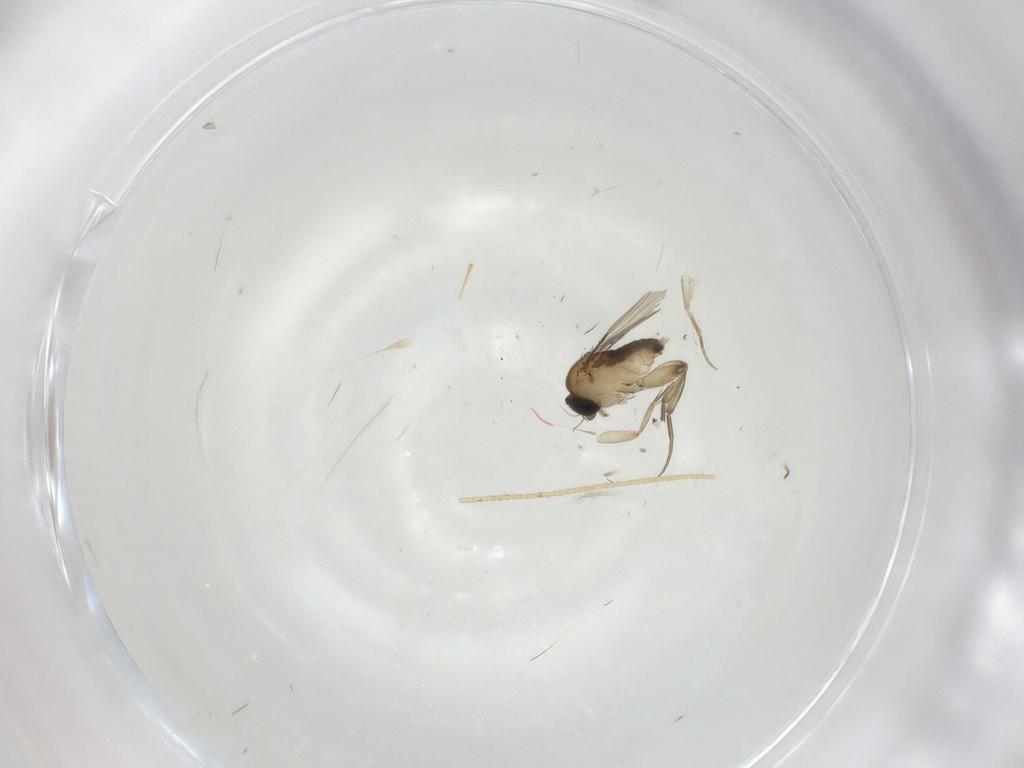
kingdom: Animalia
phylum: Arthropoda
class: Insecta
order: Diptera
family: Phoridae
